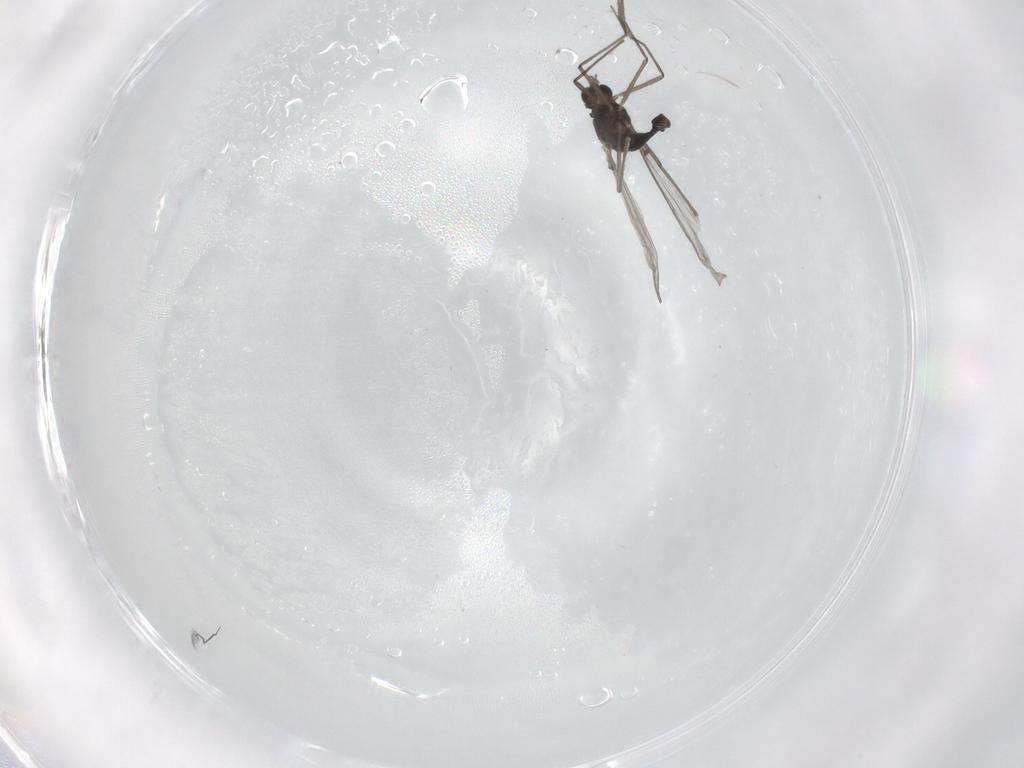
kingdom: Animalia
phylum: Arthropoda
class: Insecta
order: Diptera
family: Chironomidae
